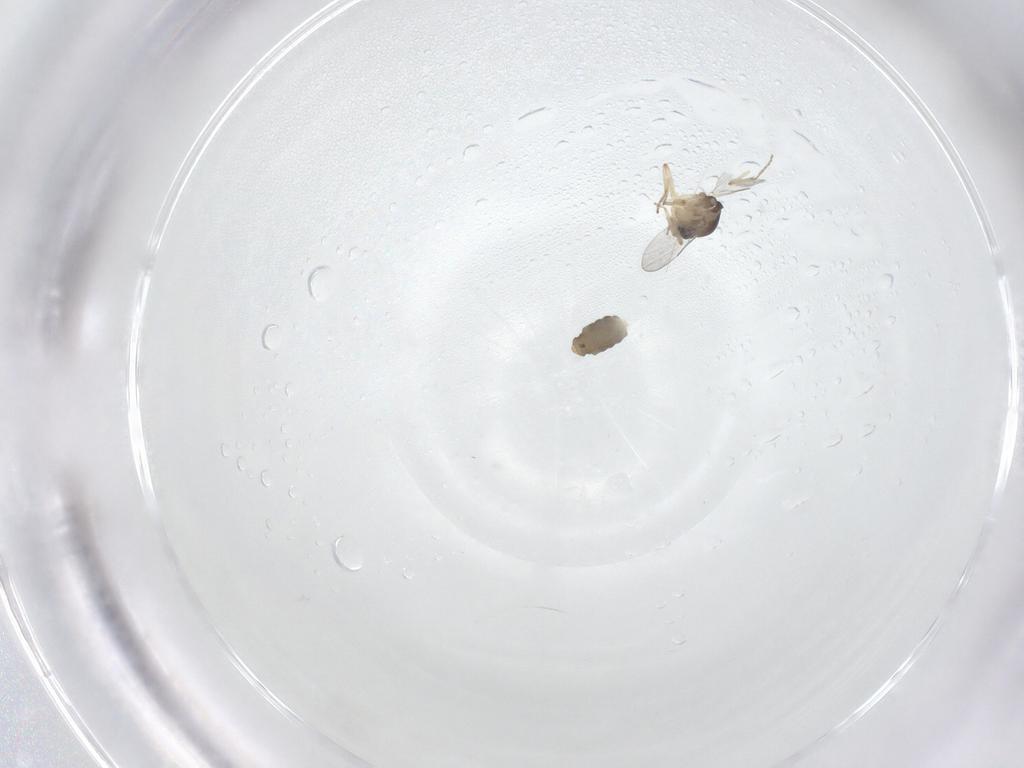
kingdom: Animalia
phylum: Arthropoda
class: Insecta
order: Diptera
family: Ceratopogonidae
